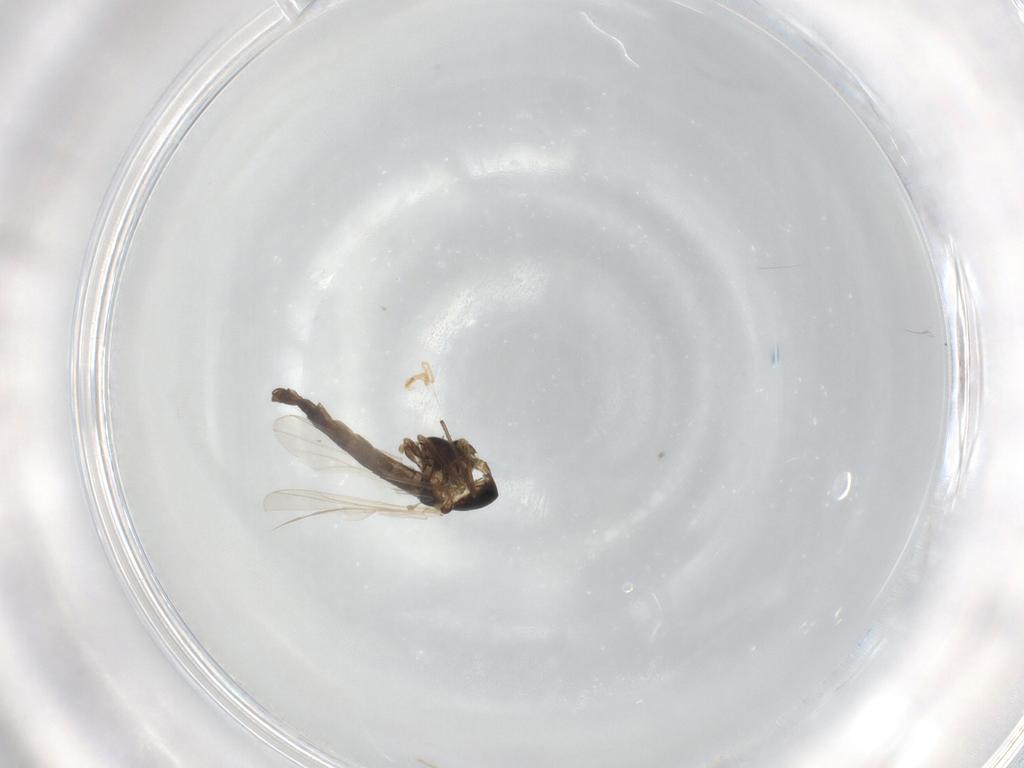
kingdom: Animalia
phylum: Arthropoda
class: Insecta
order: Diptera
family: Chironomidae
